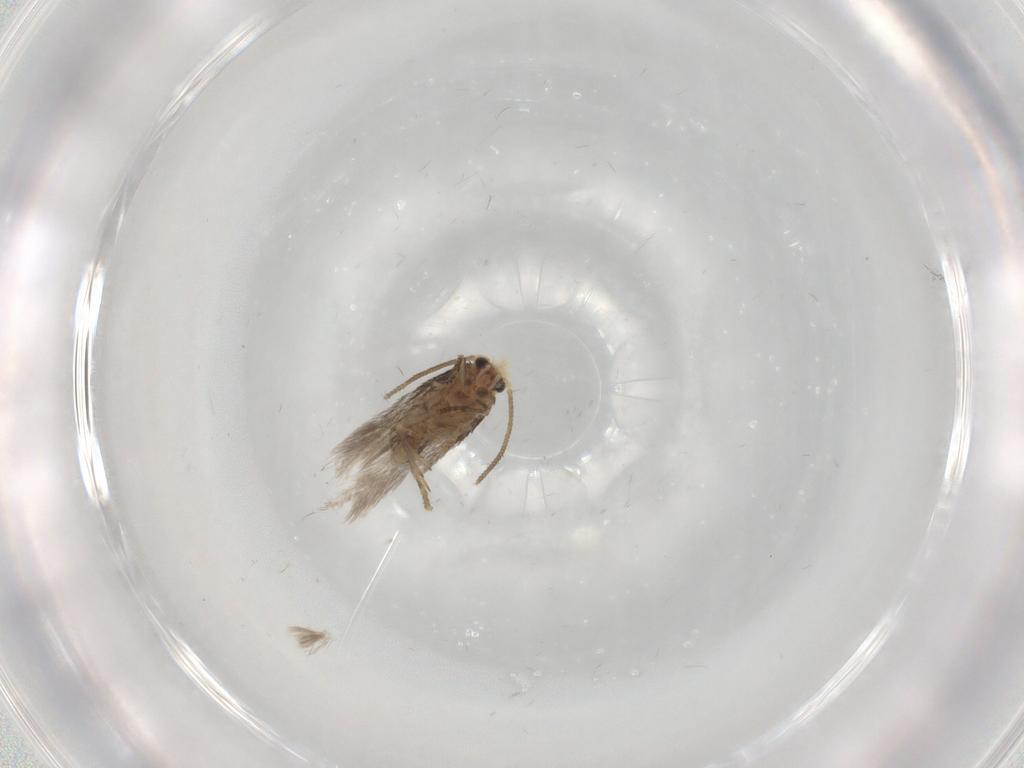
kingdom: Animalia
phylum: Arthropoda
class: Insecta
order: Lepidoptera
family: Nepticulidae
